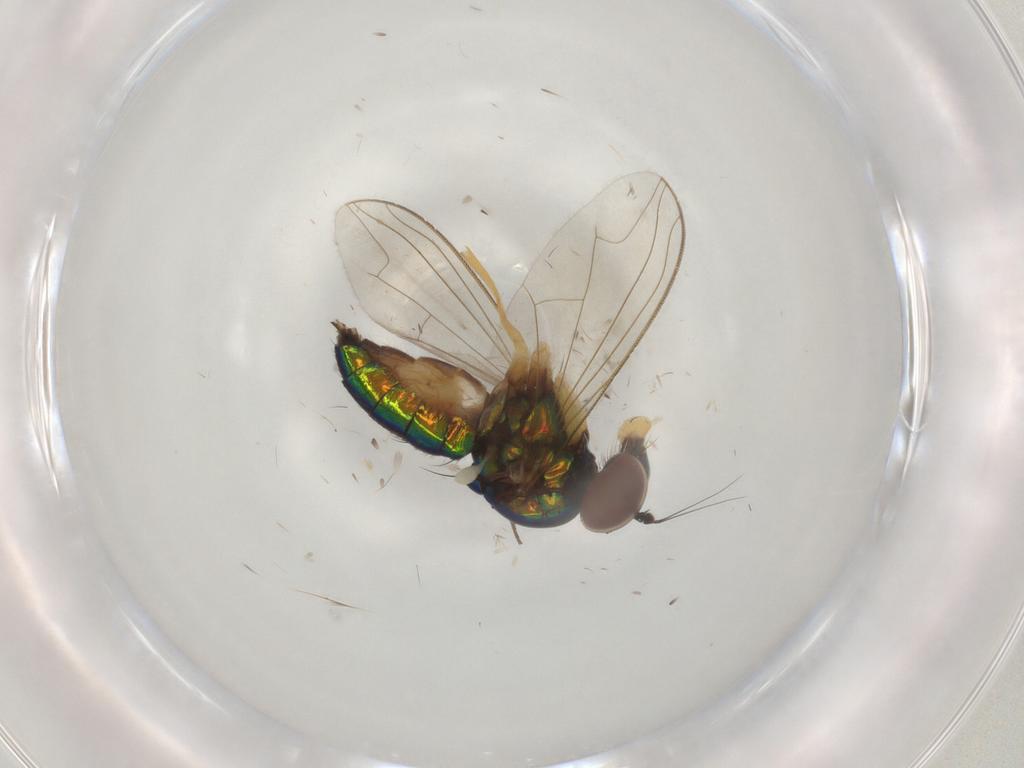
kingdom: Animalia
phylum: Arthropoda
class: Insecta
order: Diptera
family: Dolichopodidae
